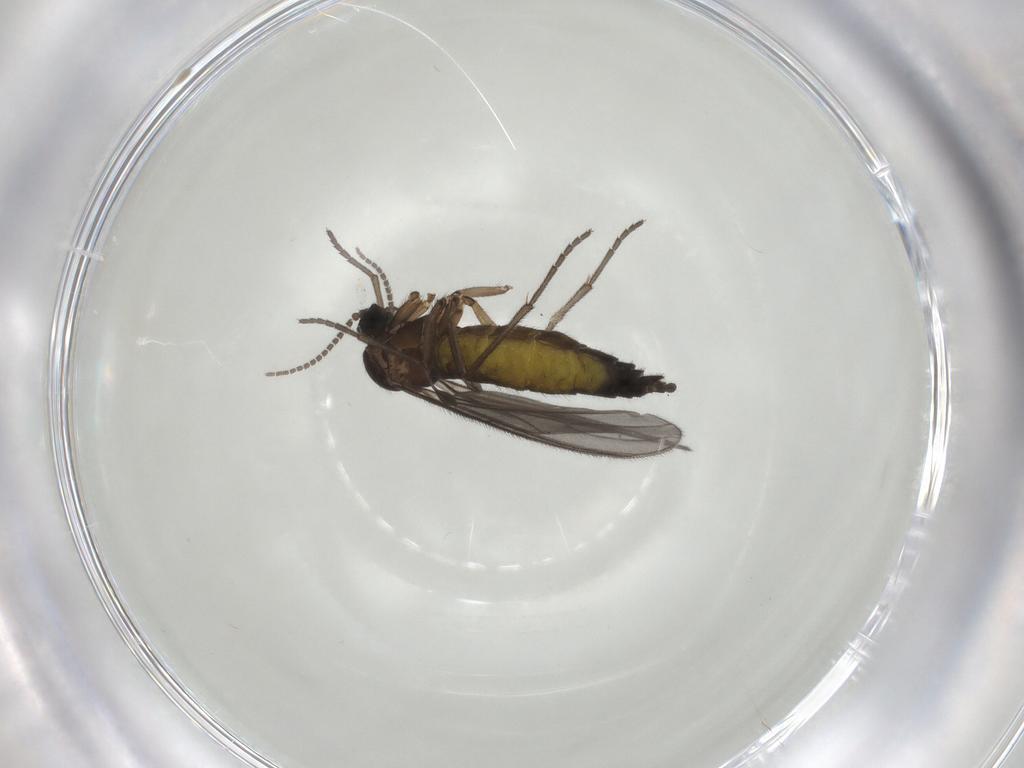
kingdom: Animalia
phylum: Arthropoda
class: Insecta
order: Diptera
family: Sciaridae
